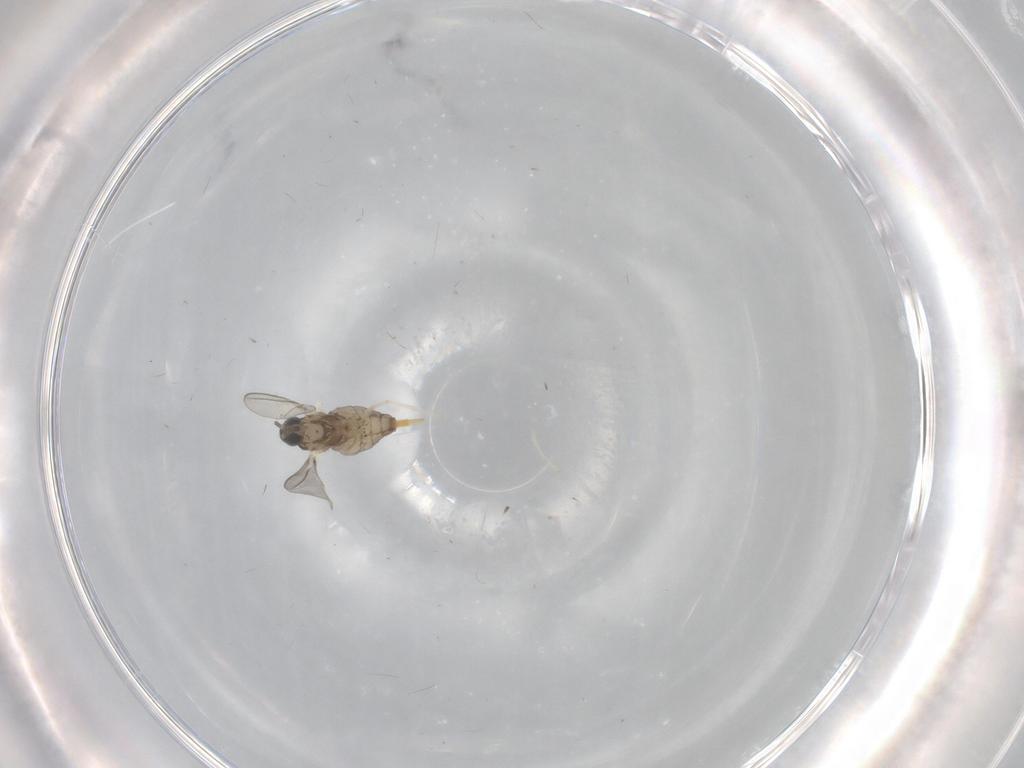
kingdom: Animalia
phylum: Arthropoda
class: Insecta
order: Diptera
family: Cecidomyiidae
